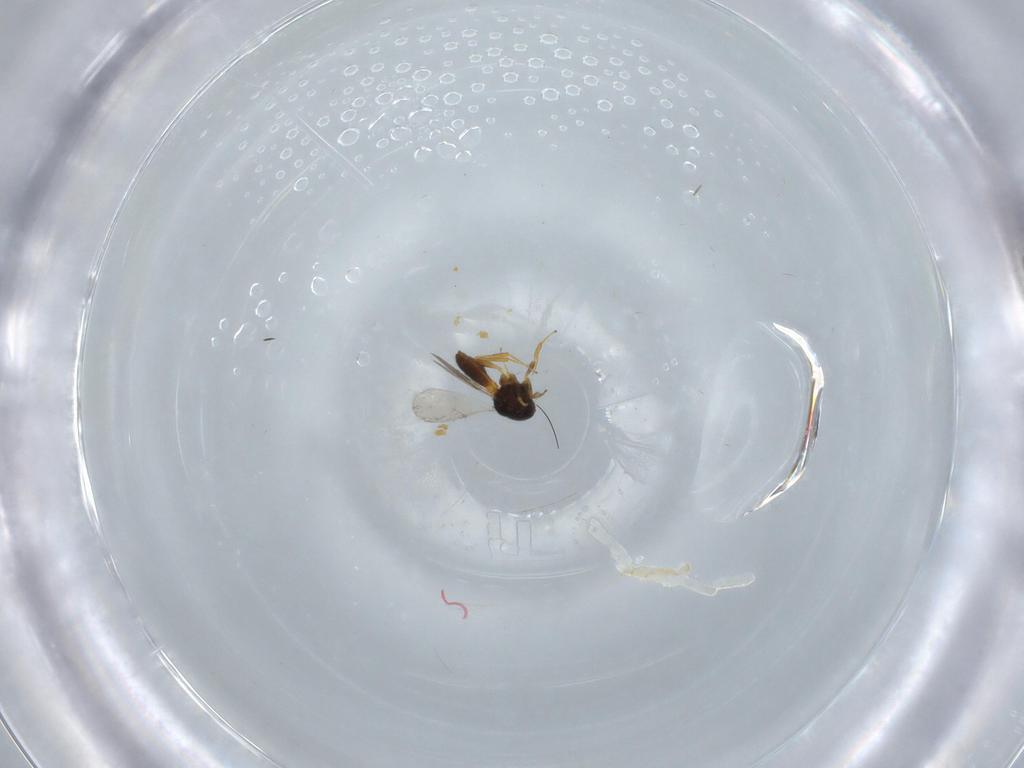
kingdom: Animalia
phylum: Arthropoda
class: Insecta
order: Hymenoptera
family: Scelionidae
